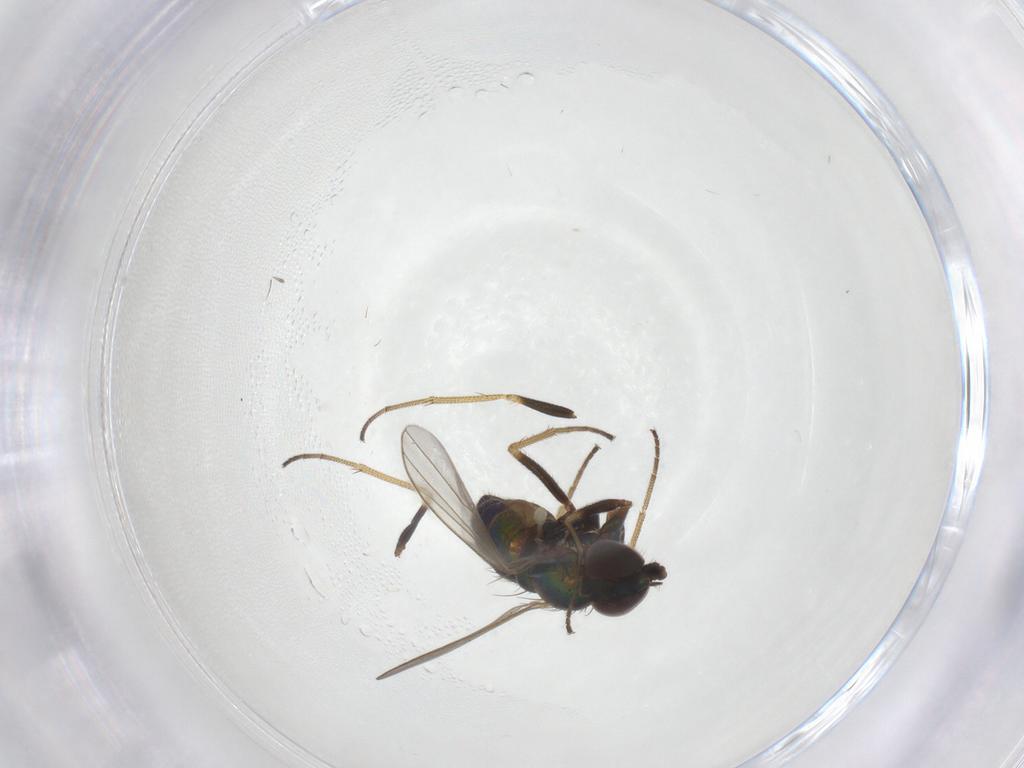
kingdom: Animalia
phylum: Arthropoda
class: Insecta
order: Diptera
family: Dolichopodidae
